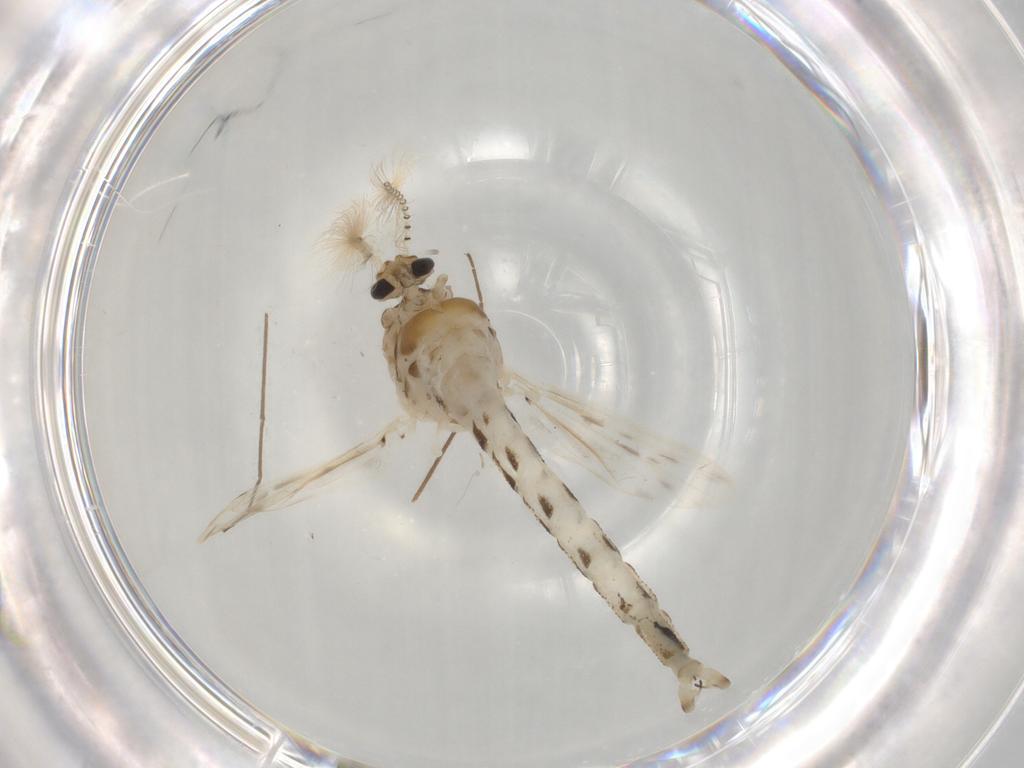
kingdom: Animalia
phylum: Arthropoda
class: Insecta
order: Diptera
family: Chaoboridae
